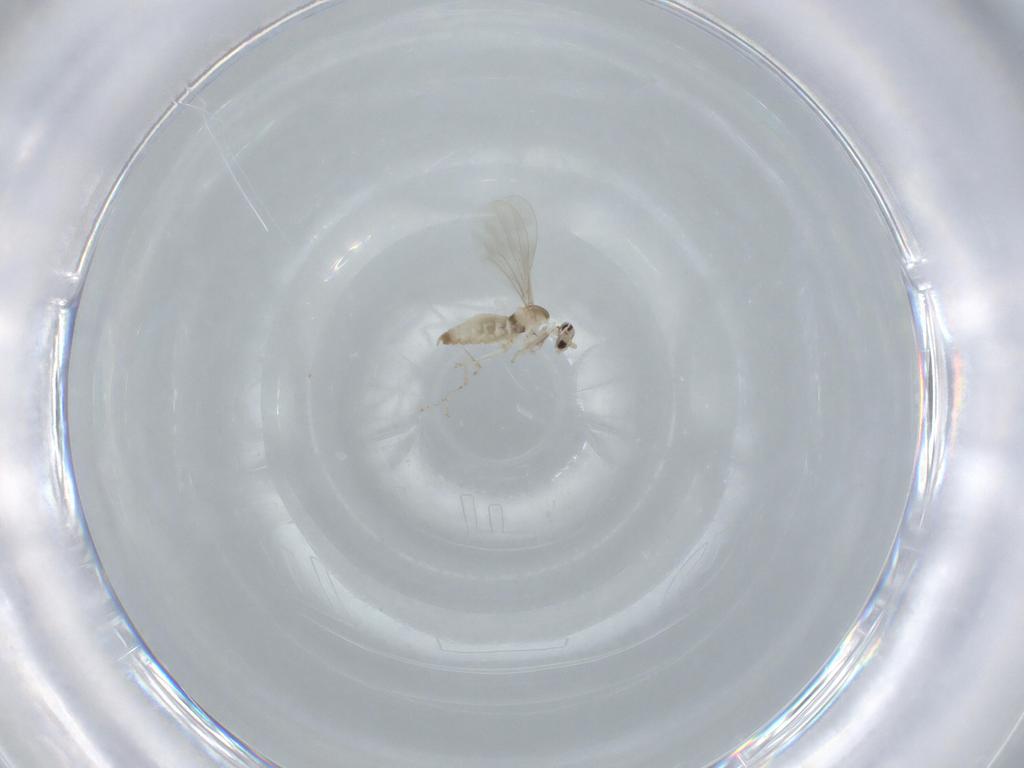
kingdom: Animalia
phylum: Arthropoda
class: Insecta
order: Diptera
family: Cecidomyiidae
